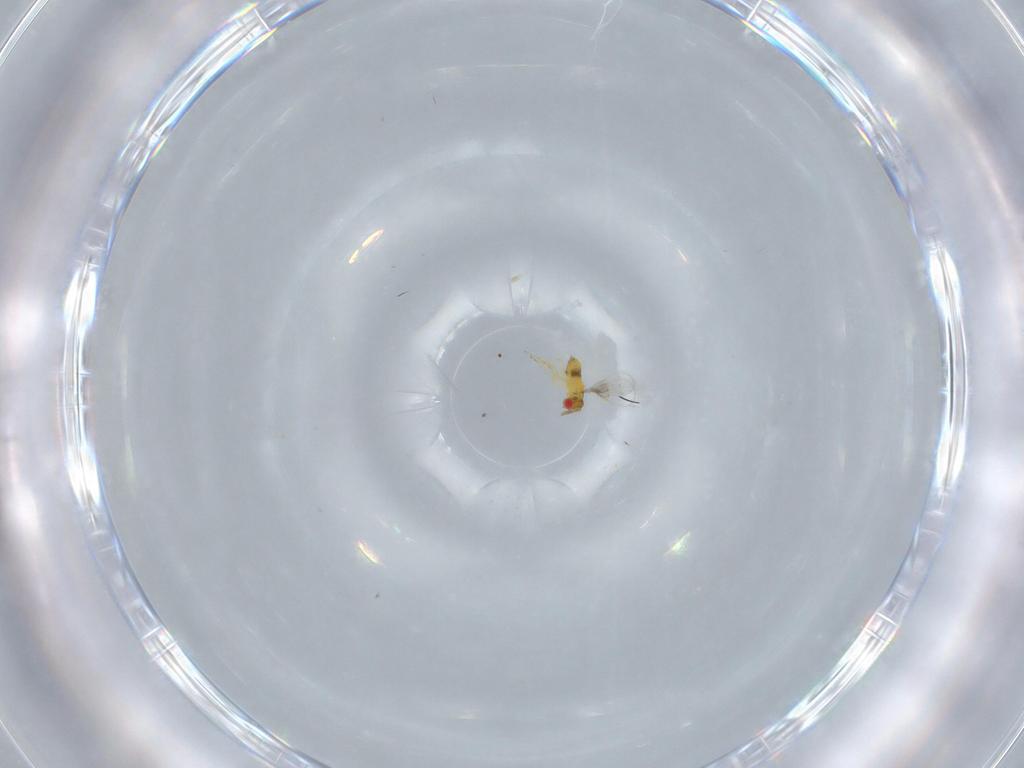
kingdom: Animalia
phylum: Arthropoda
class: Insecta
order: Hymenoptera
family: Trichogrammatidae
